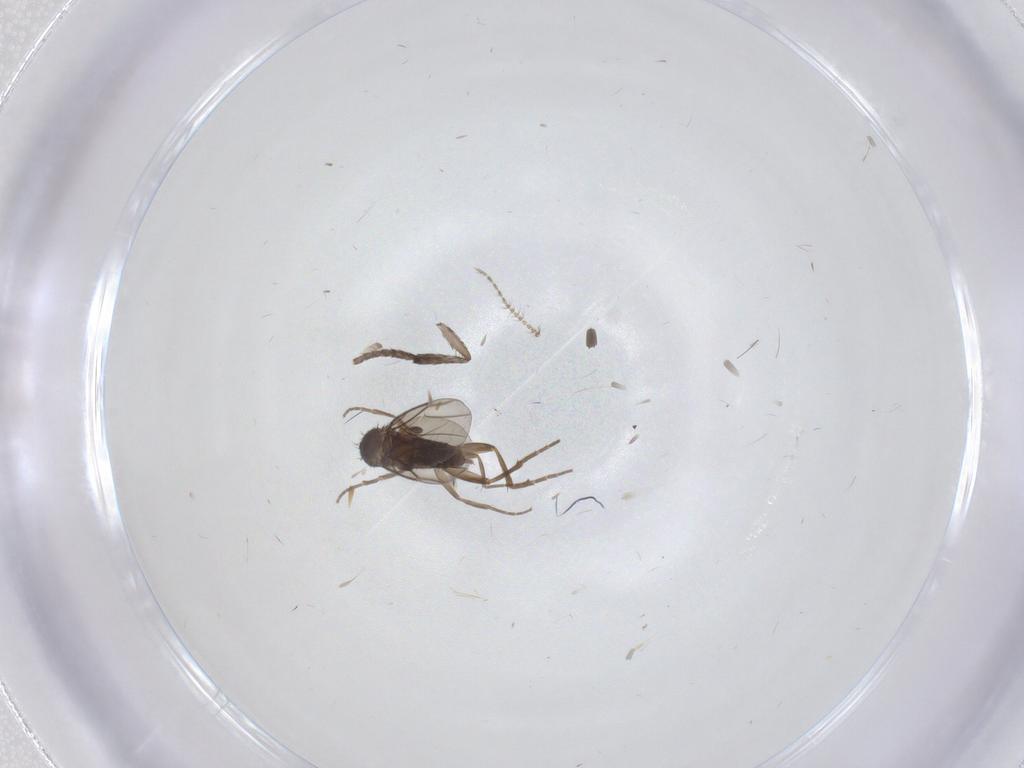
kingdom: Animalia
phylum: Arthropoda
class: Insecta
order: Diptera
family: Psychodidae
